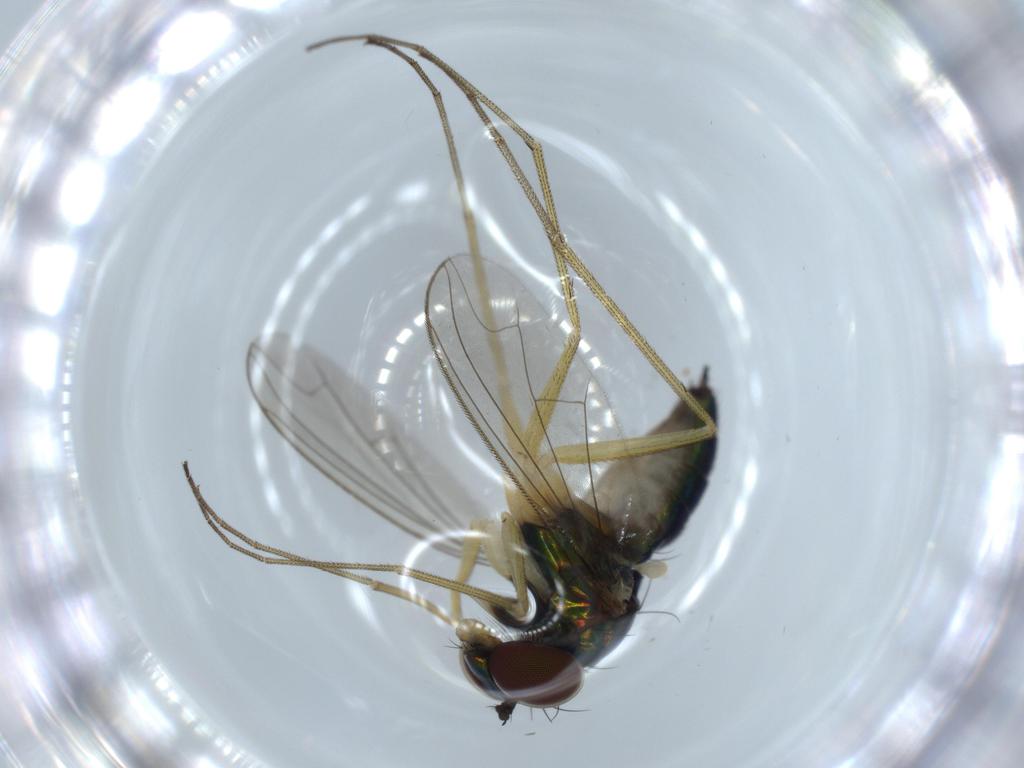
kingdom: Animalia
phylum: Arthropoda
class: Insecta
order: Diptera
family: Dolichopodidae
